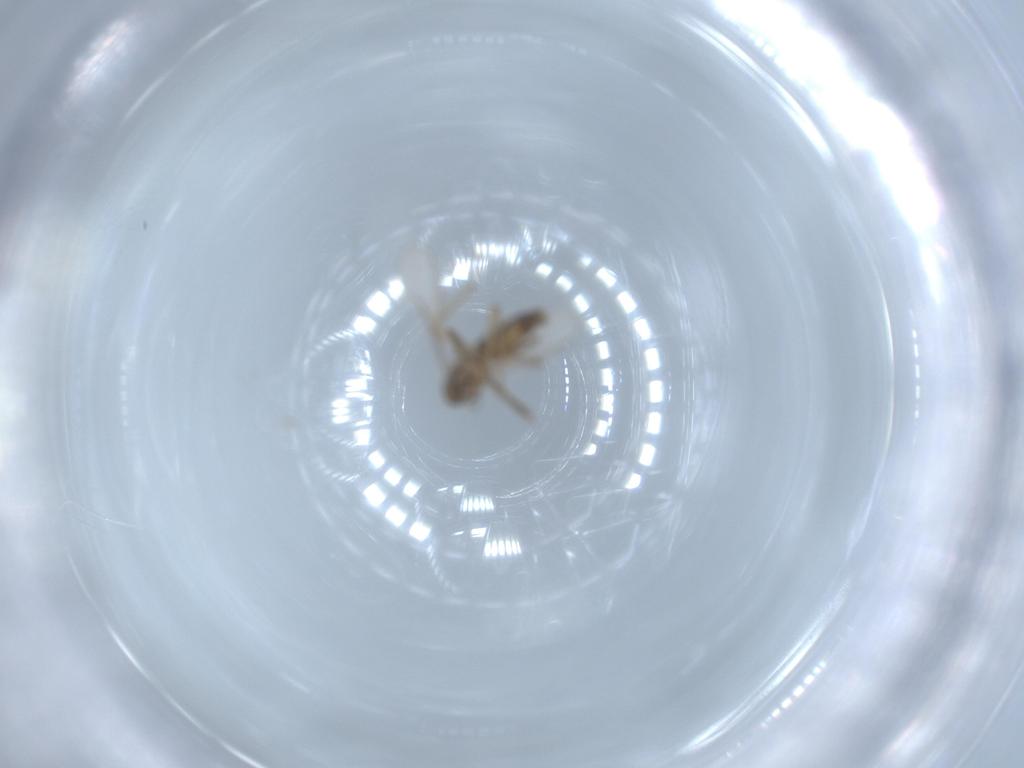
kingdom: Animalia
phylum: Arthropoda
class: Insecta
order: Diptera
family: Chironomidae
